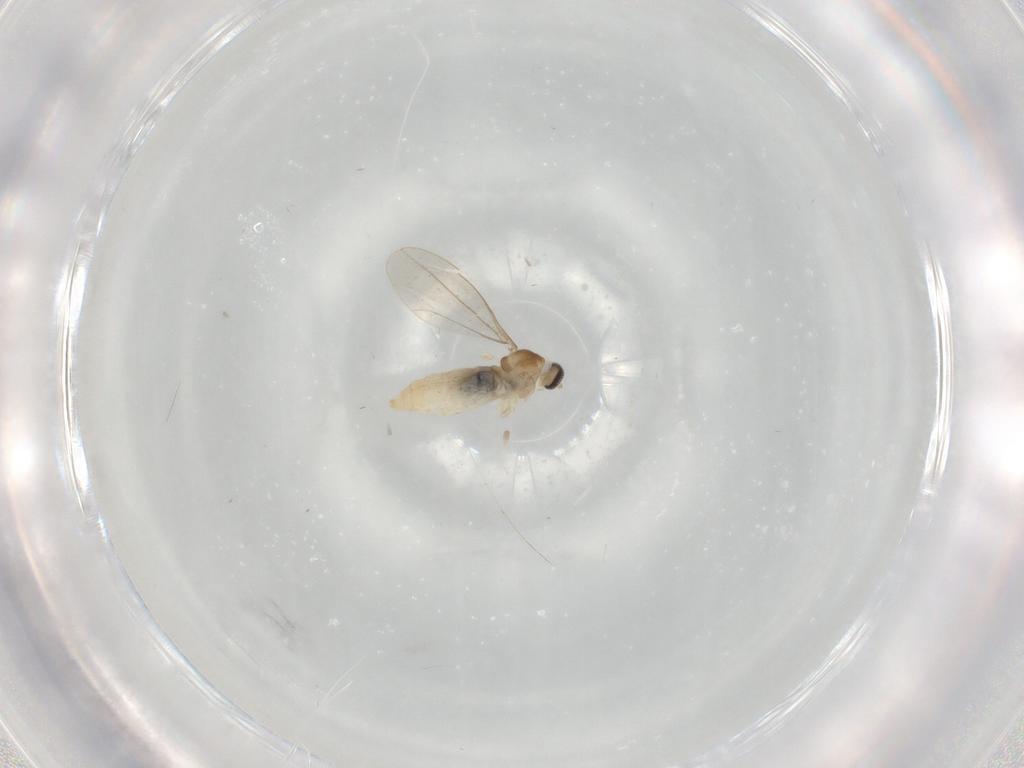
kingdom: Animalia
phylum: Arthropoda
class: Insecta
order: Diptera
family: Cecidomyiidae
